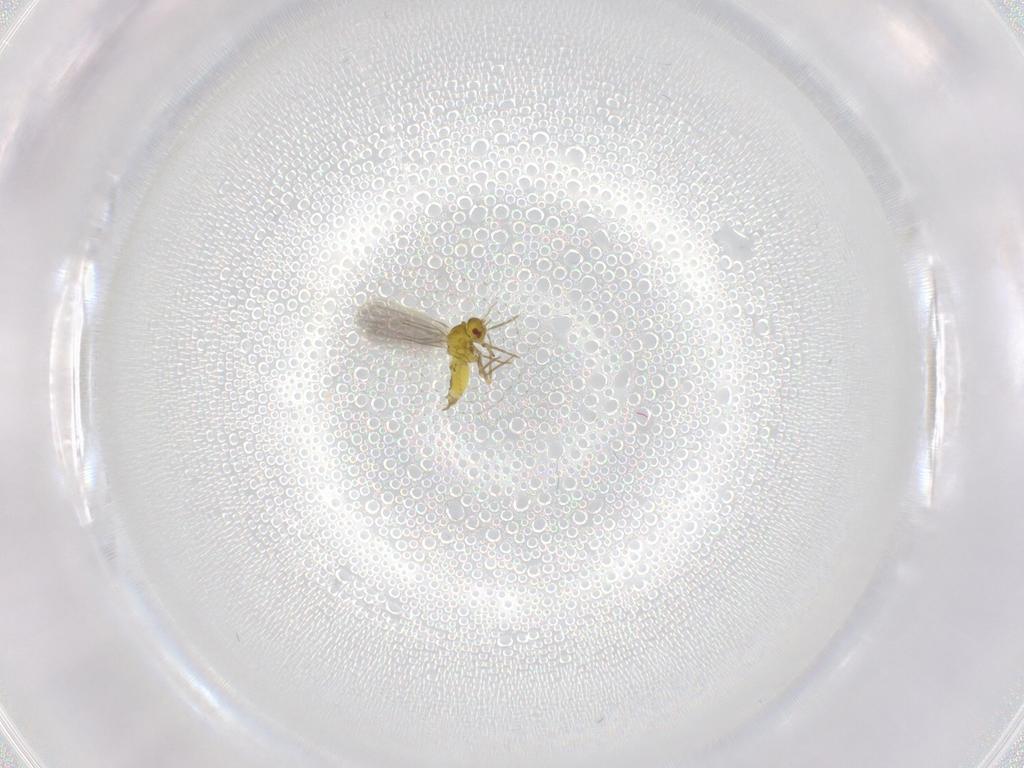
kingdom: Animalia
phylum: Arthropoda
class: Insecta
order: Hemiptera
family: Aleyrodidae
